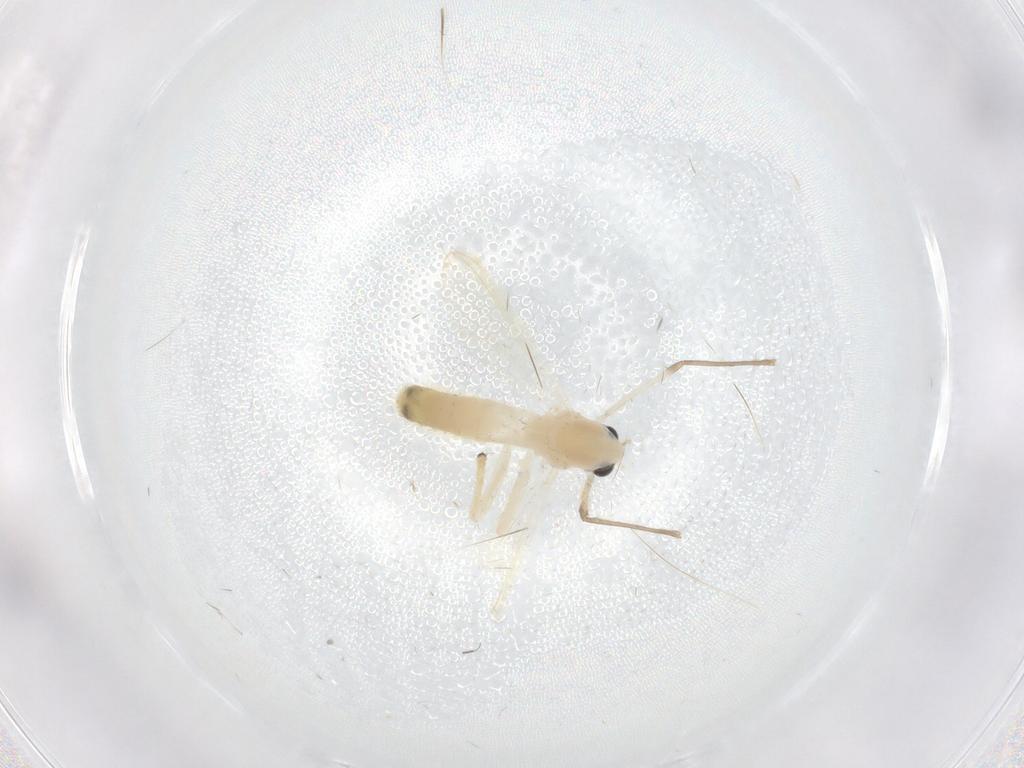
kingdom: Animalia
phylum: Arthropoda
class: Insecta
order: Diptera
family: Chironomidae
